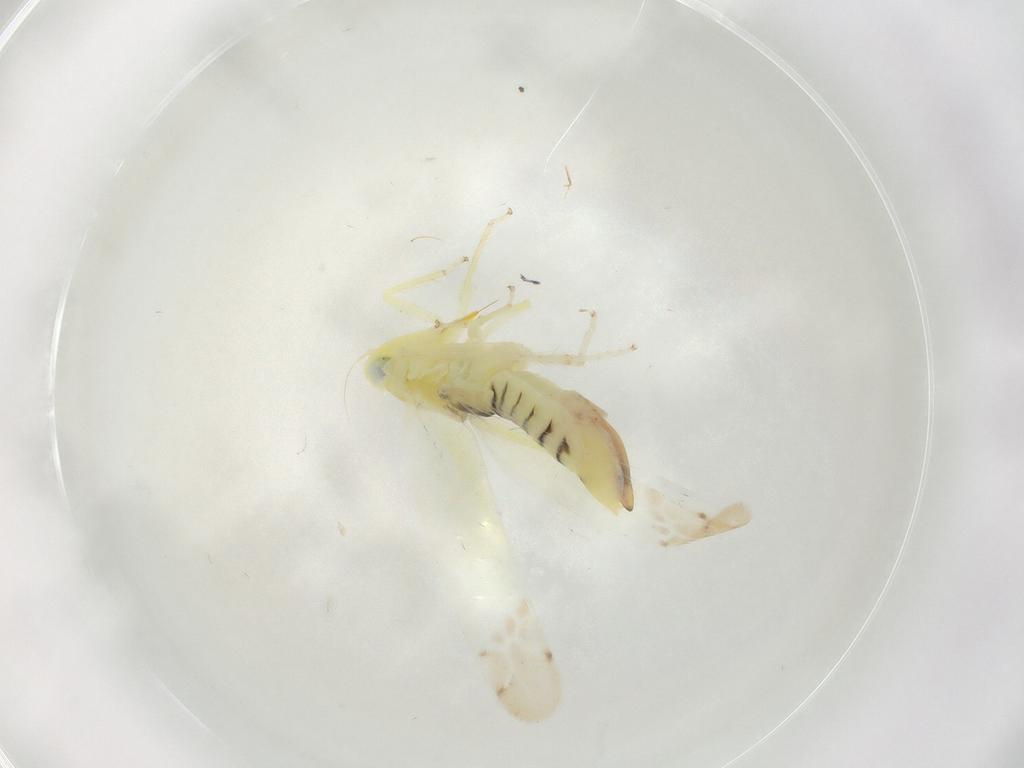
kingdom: Animalia
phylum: Arthropoda
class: Insecta
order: Hemiptera
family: Cicadellidae
